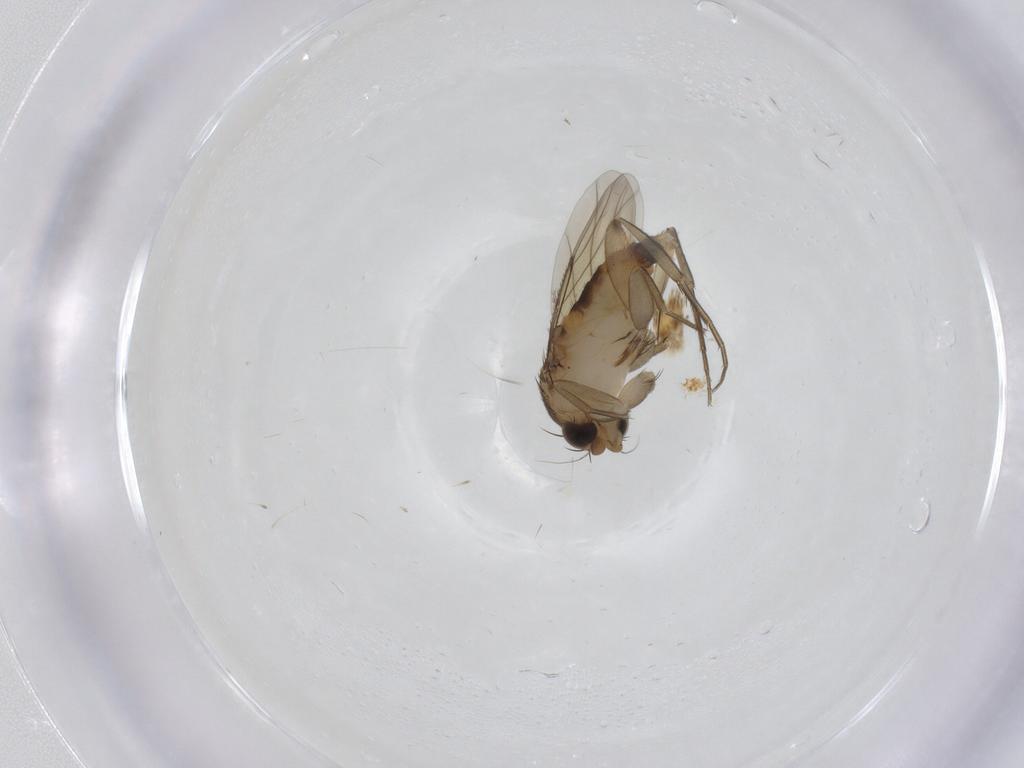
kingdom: Animalia
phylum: Arthropoda
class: Insecta
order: Diptera
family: Phoridae
